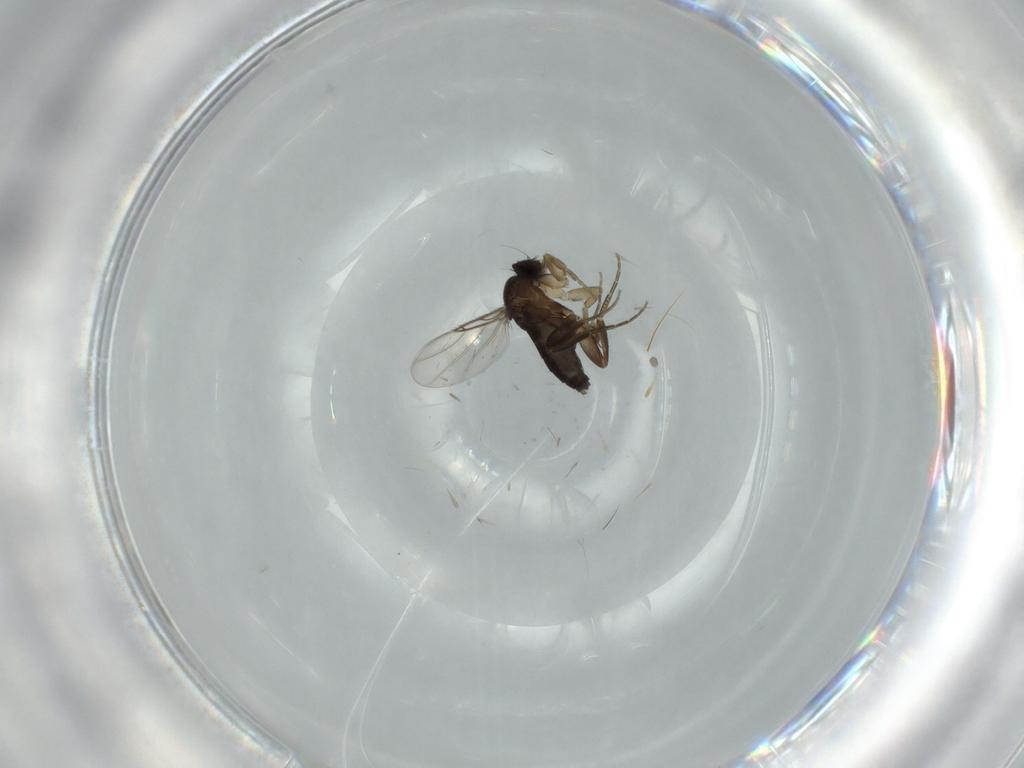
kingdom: Animalia
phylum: Arthropoda
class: Insecta
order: Diptera
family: Phoridae
